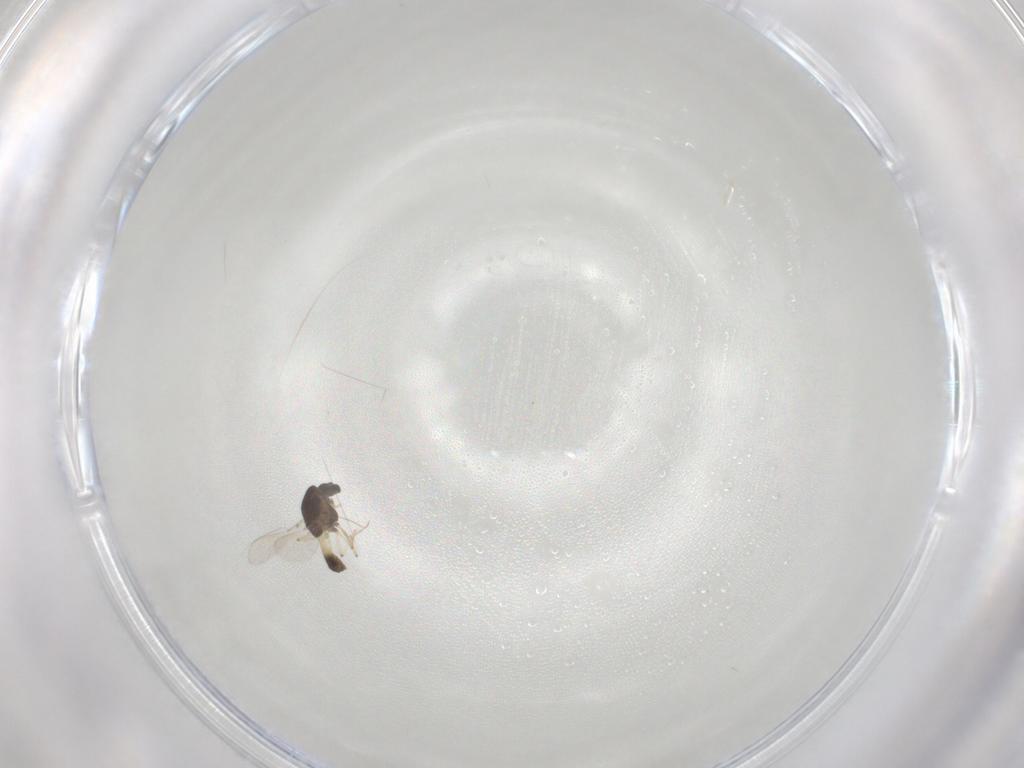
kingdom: Animalia
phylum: Arthropoda
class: Insecta
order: Diptera
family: Chironomidae
